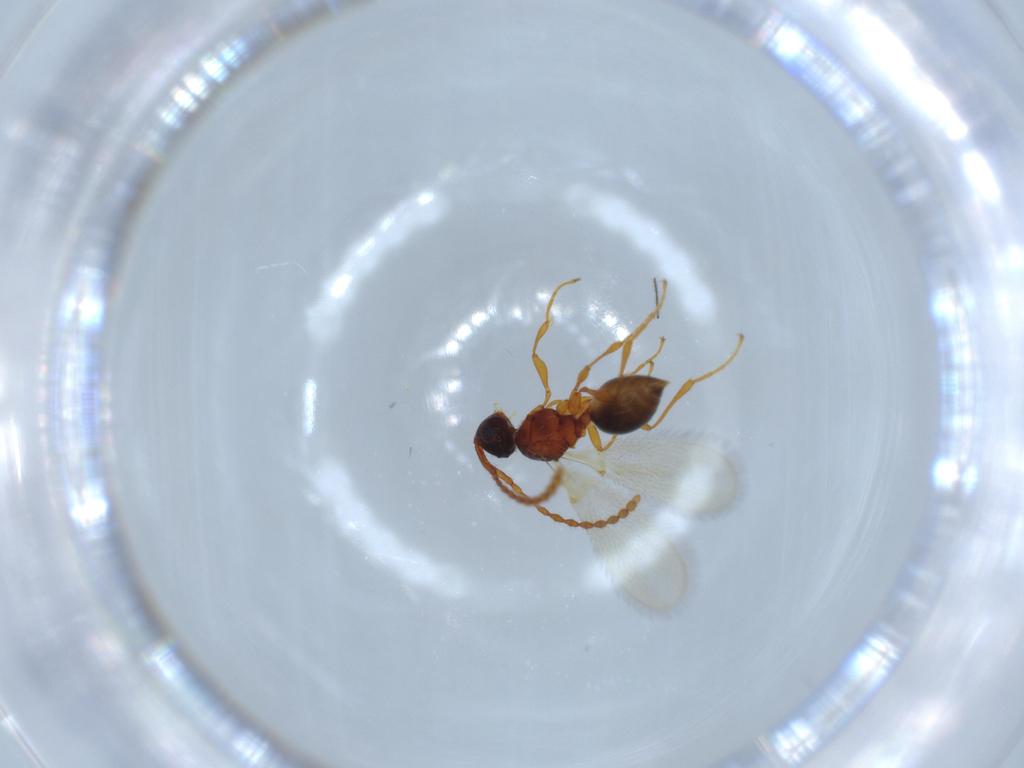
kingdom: Animalia
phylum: Arthropoda
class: Insecta
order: Hymenoptera
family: Diapriidae
